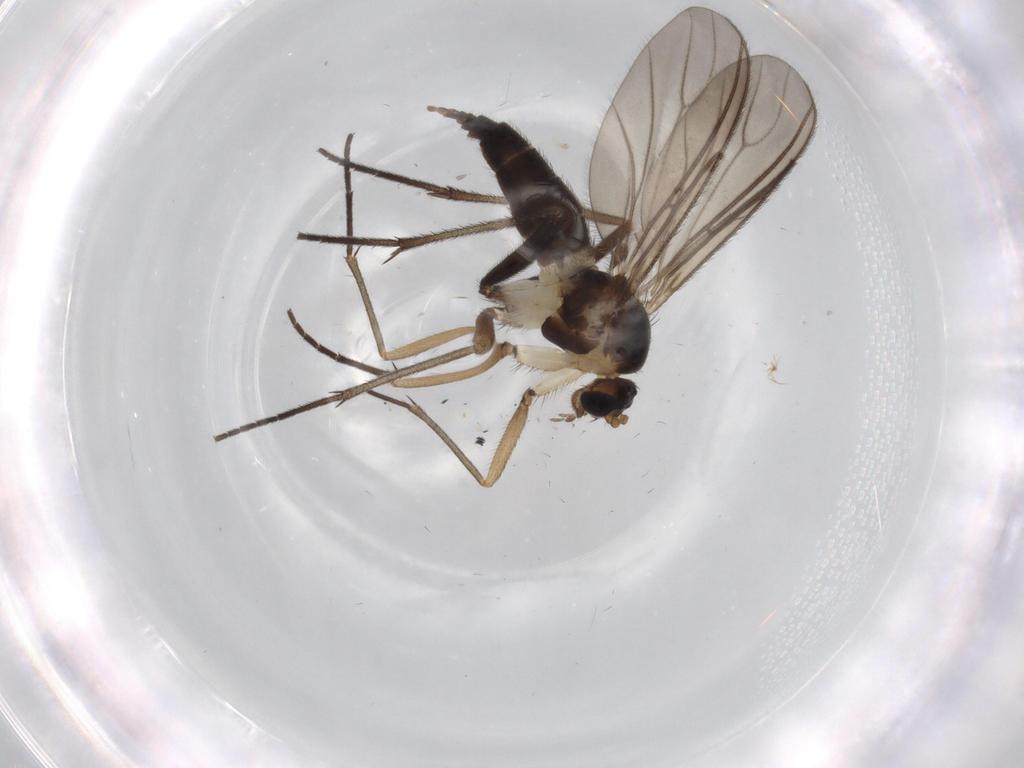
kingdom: Animalia
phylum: Arthropoda
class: Insecta
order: Diptera
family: Sciaridae
